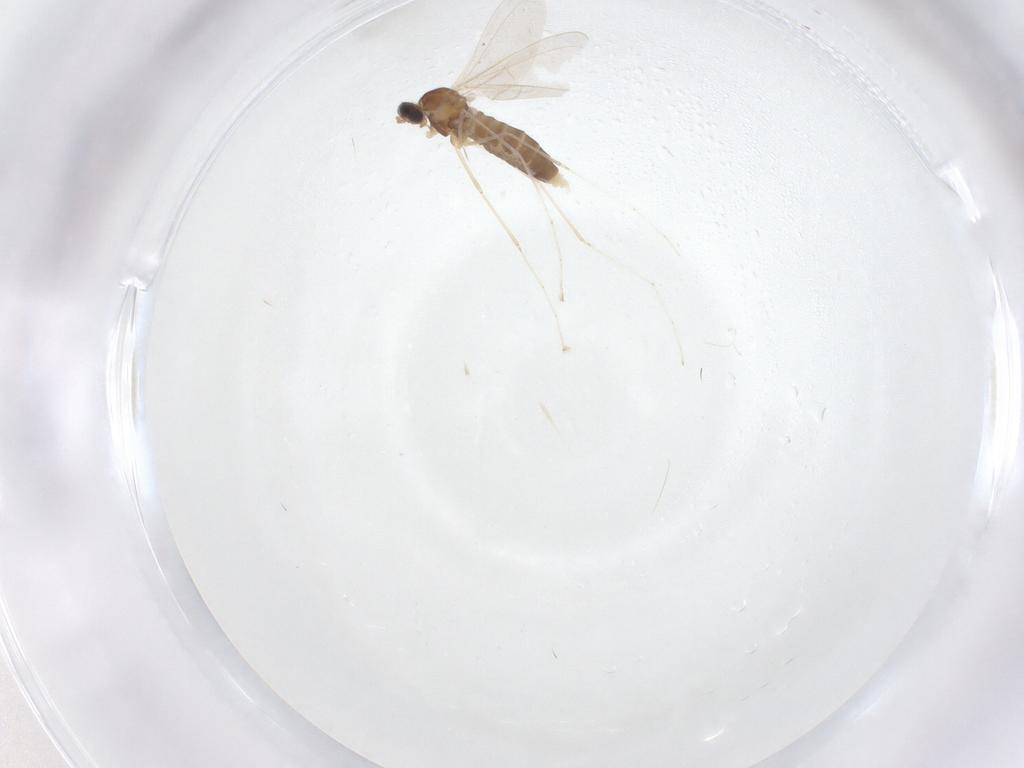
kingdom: Animalia
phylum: Arthropoda
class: Insecta
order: Diptera
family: Cecidomyiidae
